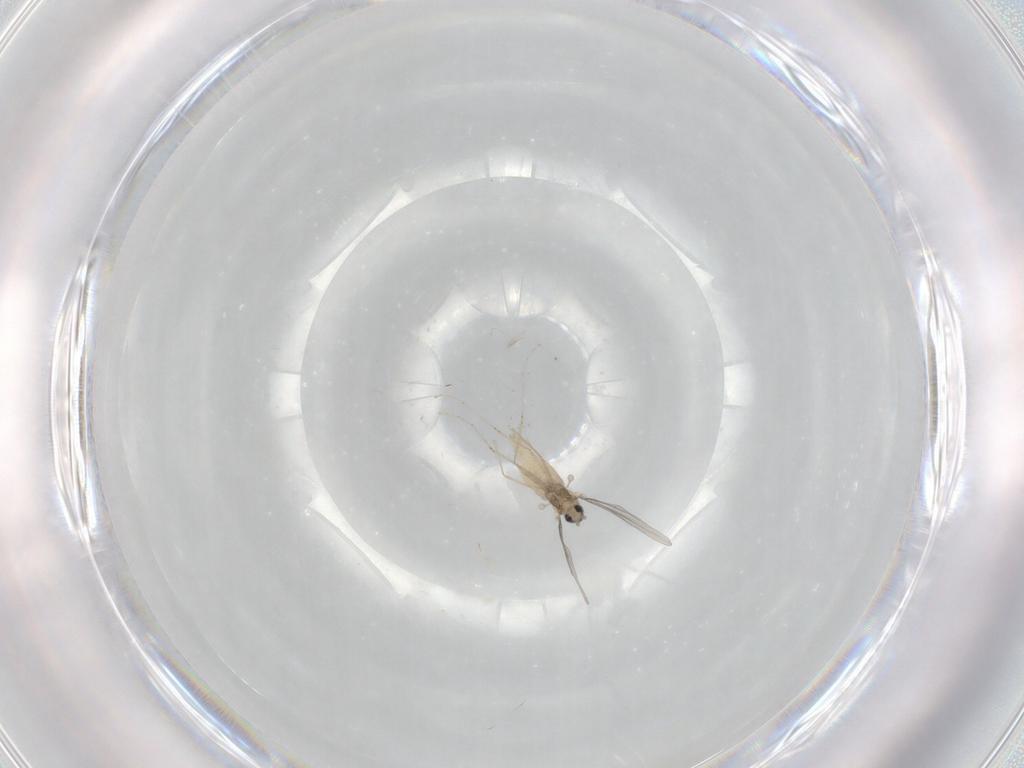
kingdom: Animalia
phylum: Arthropoda
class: Insecta
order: Diptera
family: Cecidomyiidae
